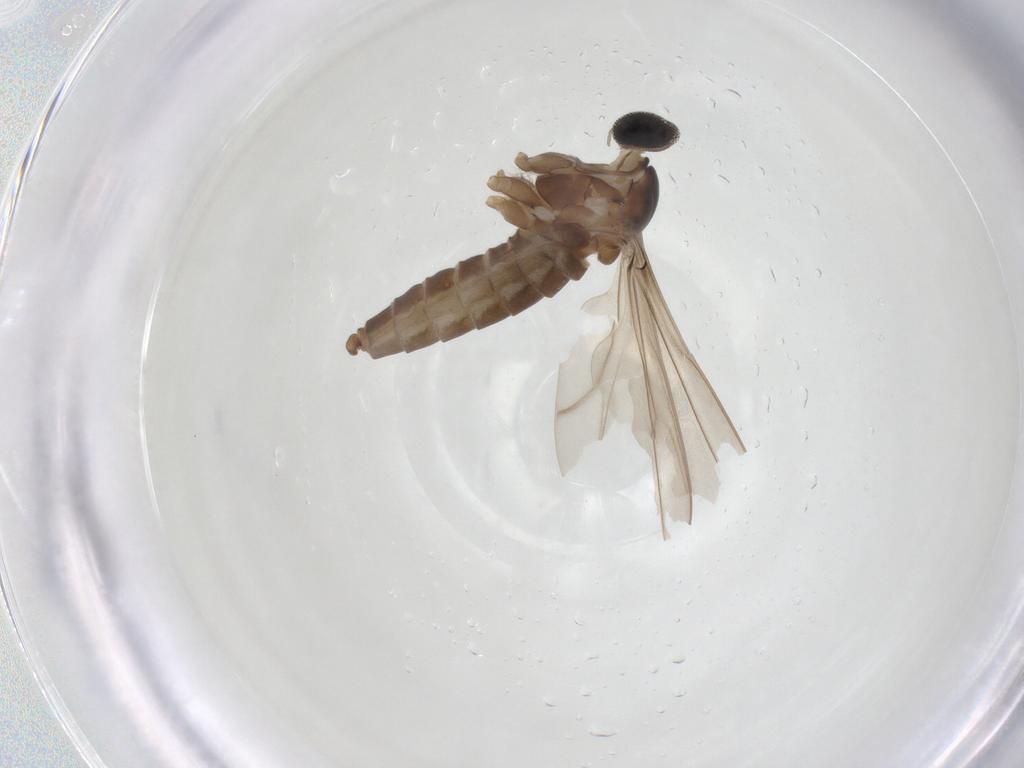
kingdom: Animalia
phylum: Arthropoda
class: Insecta
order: Diptera
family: Cecidomyiidae
